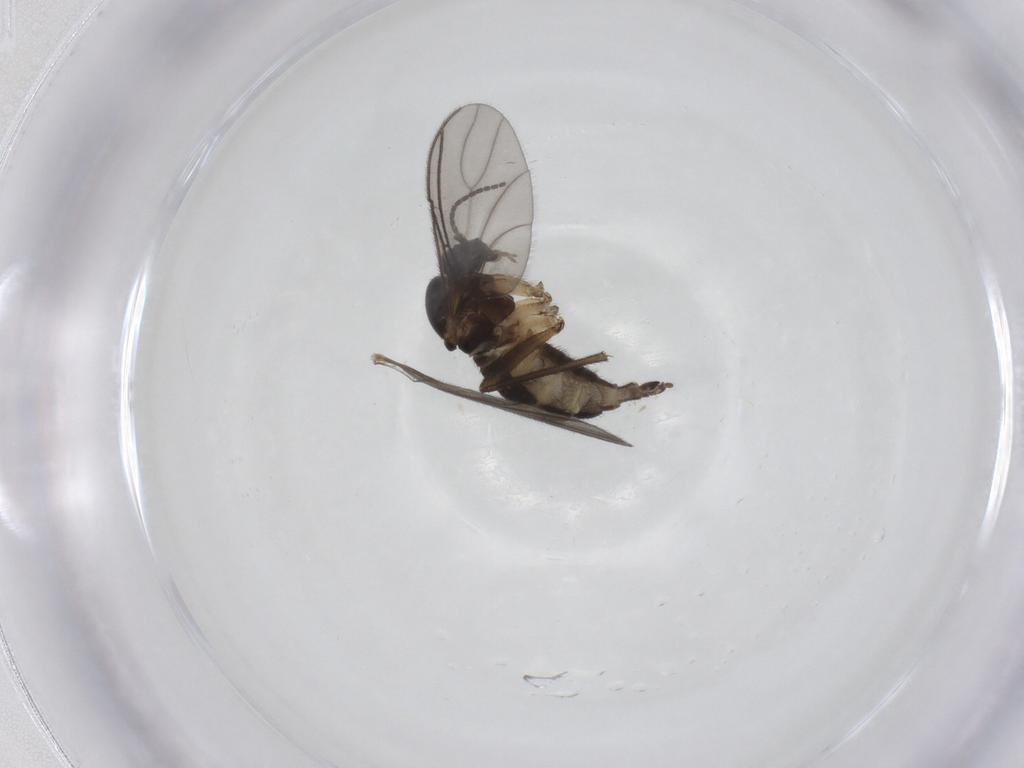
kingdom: Animalia
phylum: Arthropoda
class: Insecta
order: Diptera
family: Sciaridae
